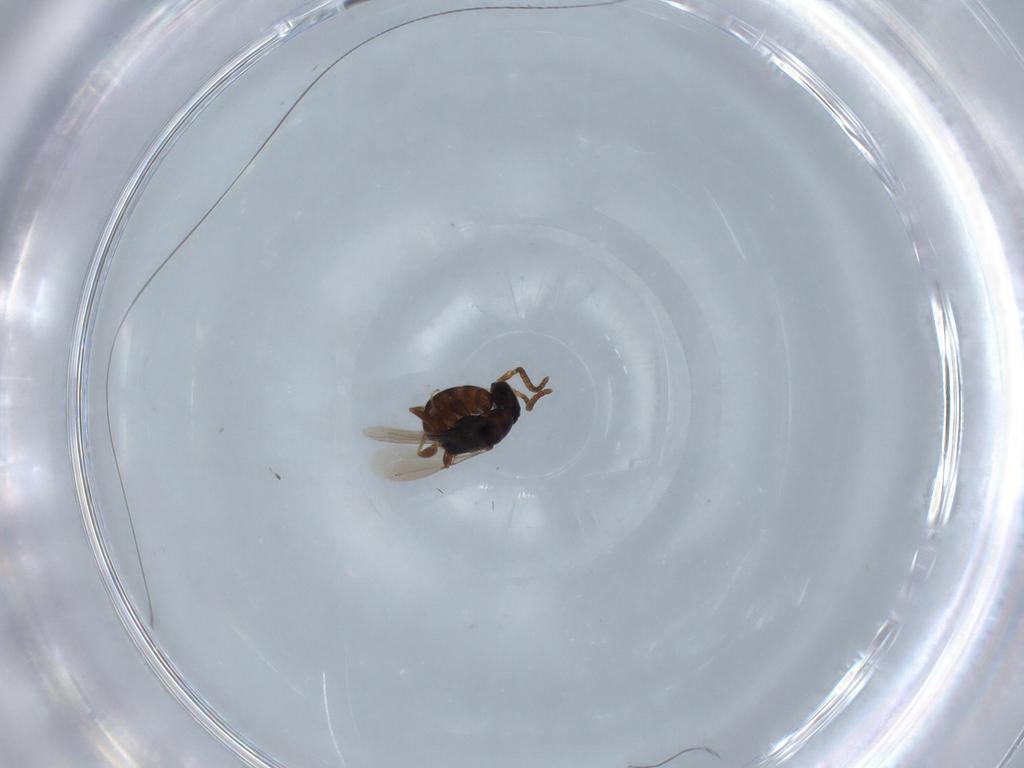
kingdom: Animalia
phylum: Arthropoda
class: Insecta
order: Hymenoptera
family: Bethylidae
